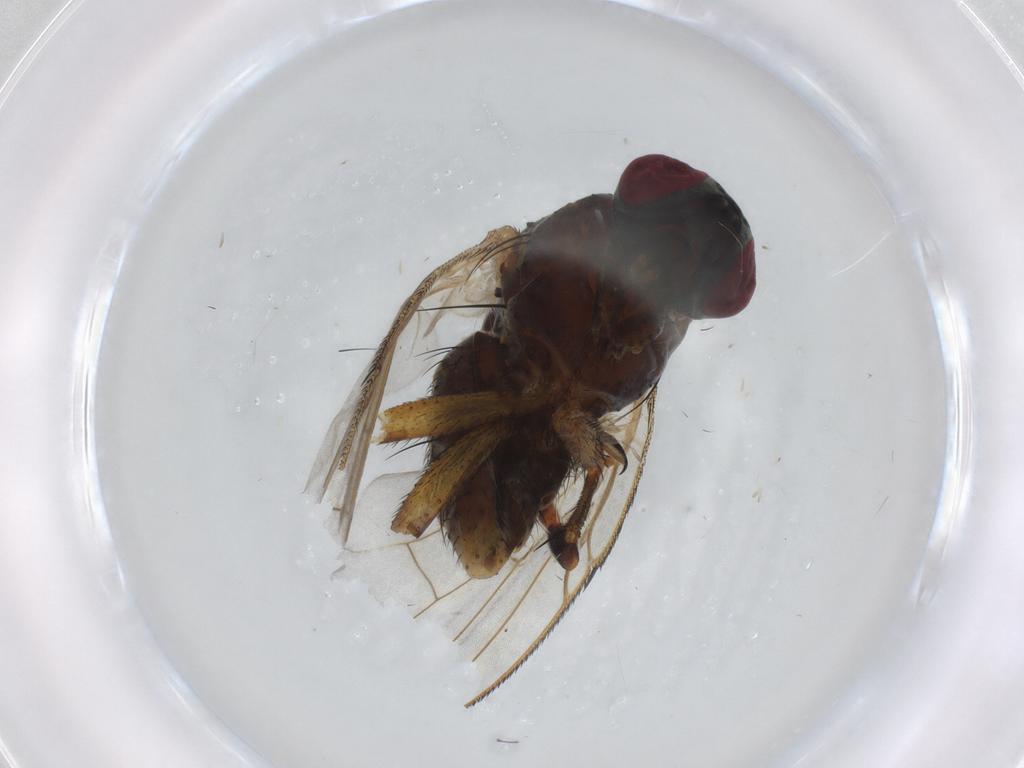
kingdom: Animalia
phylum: Arthropoda
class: Insecta
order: Diptera
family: Muscidae
